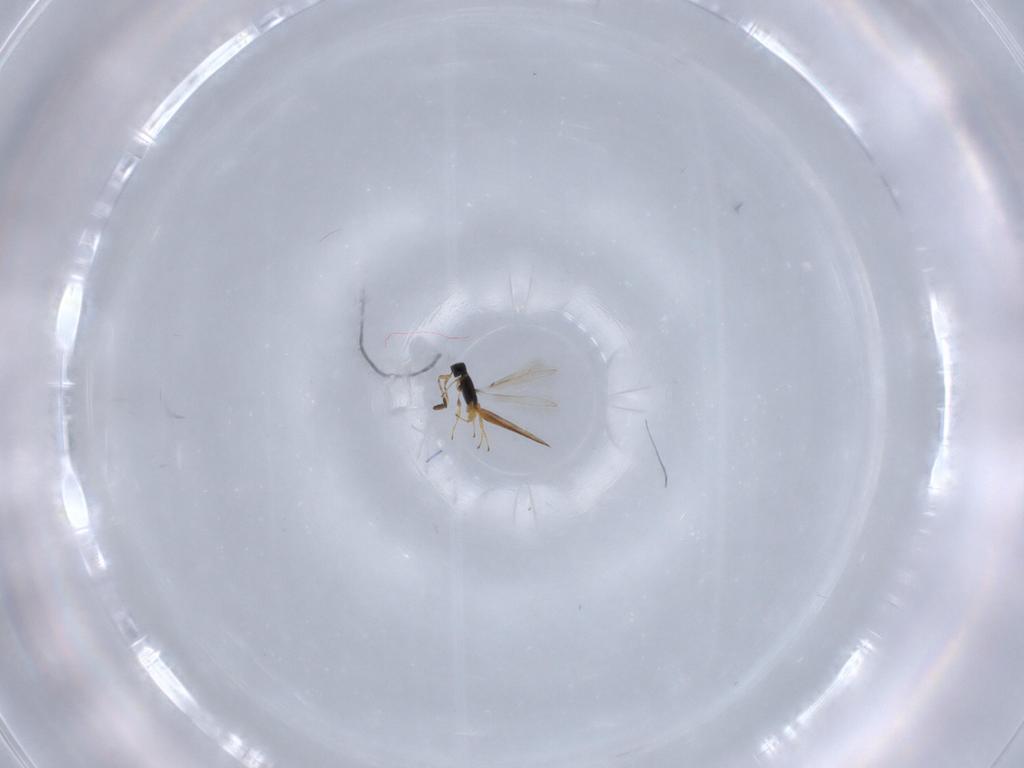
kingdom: Animalia
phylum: Arthropoda
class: Insecta
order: Hymenoptera
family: Scelionidae
